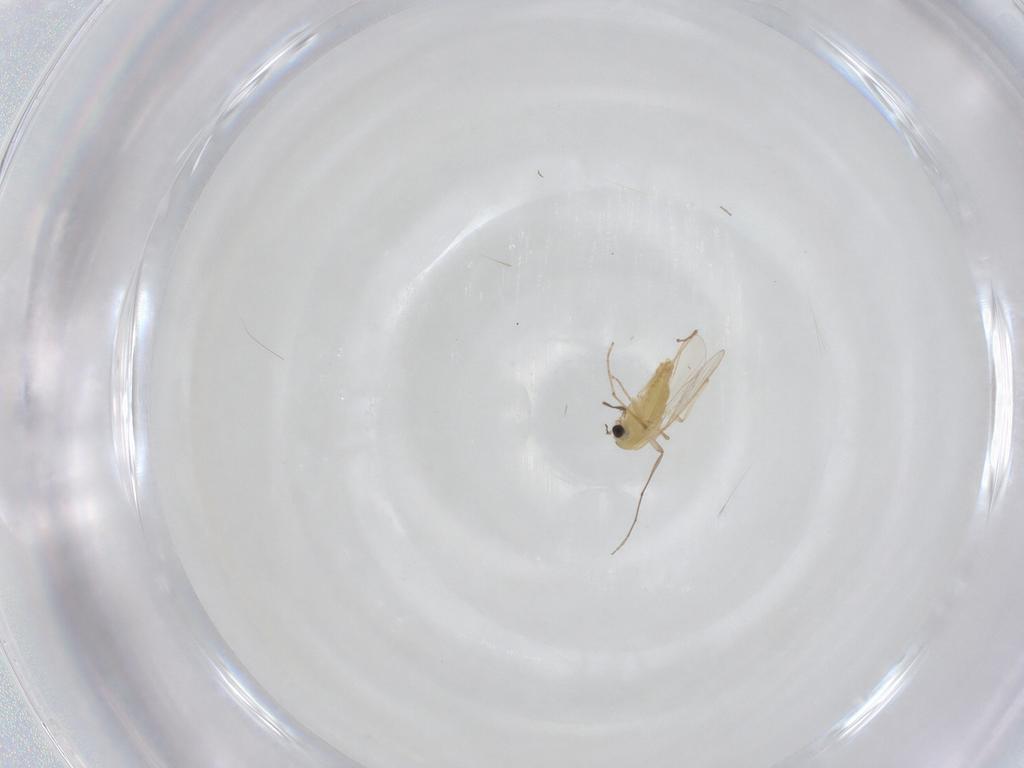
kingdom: Animalia
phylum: Arthropoda
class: Insecta
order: Diptera
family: Chironomidae
